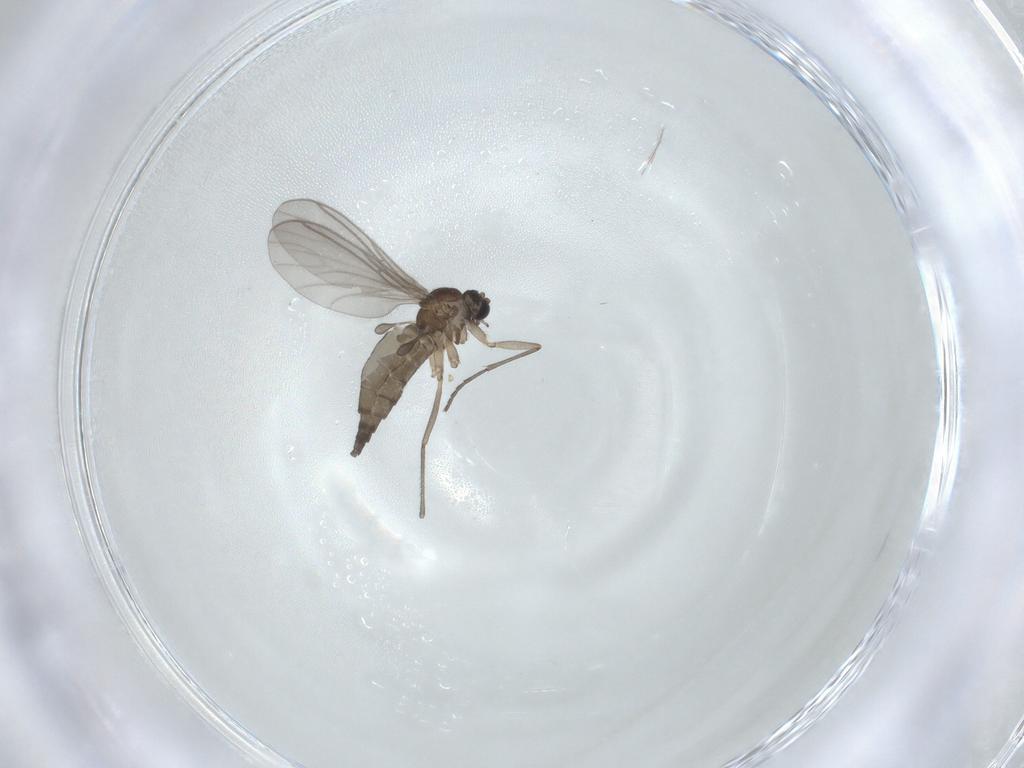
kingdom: Animalia
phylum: Arthropoda
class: Insecta
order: Diptera
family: Sciaridae
